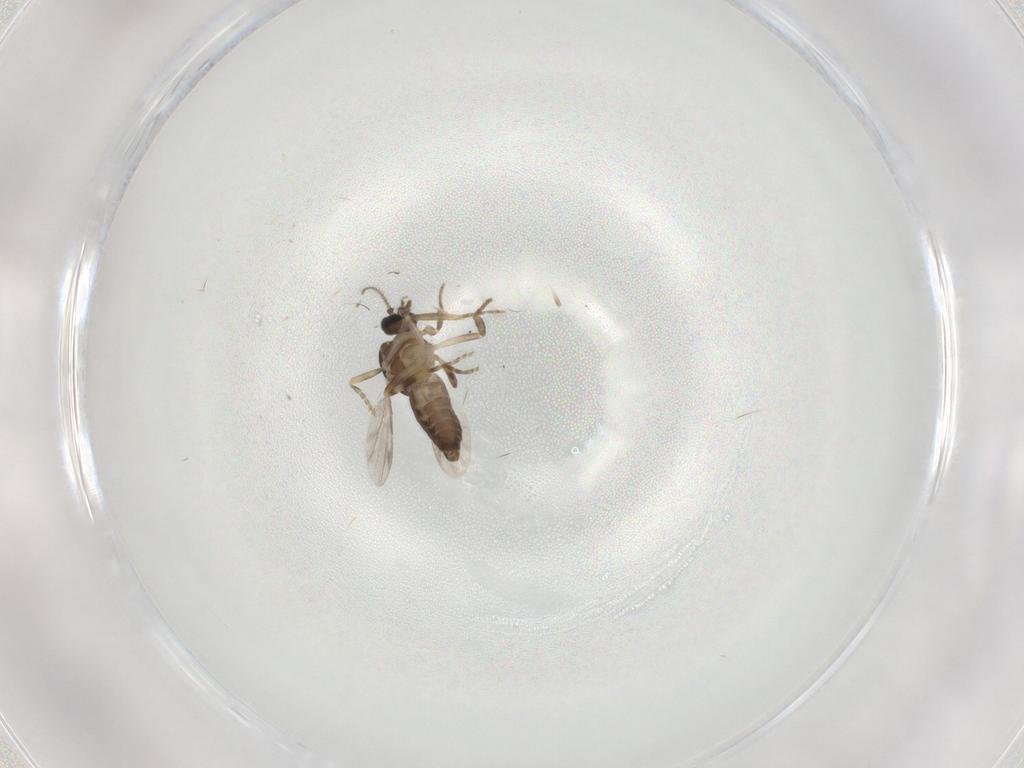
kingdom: Animalia
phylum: Arthropoda
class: Insecta
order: Diptera
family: Cecidomyiidae
